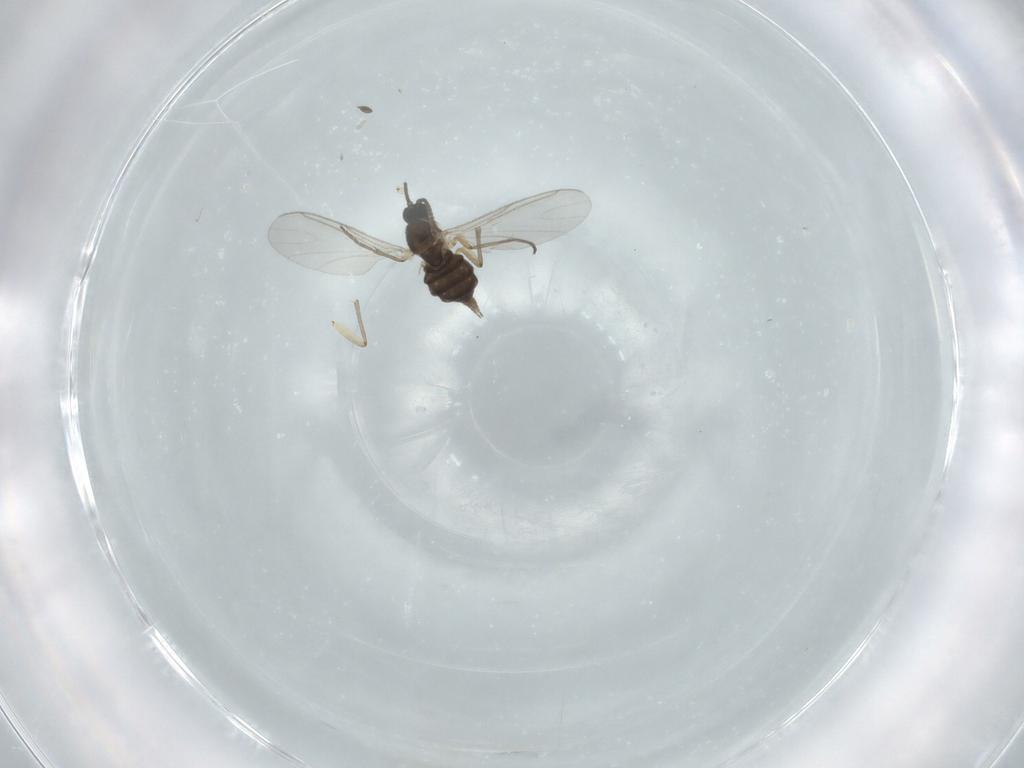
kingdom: Animalia
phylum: Arthropoda
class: Insecta
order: Diptera
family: Sciaridae
